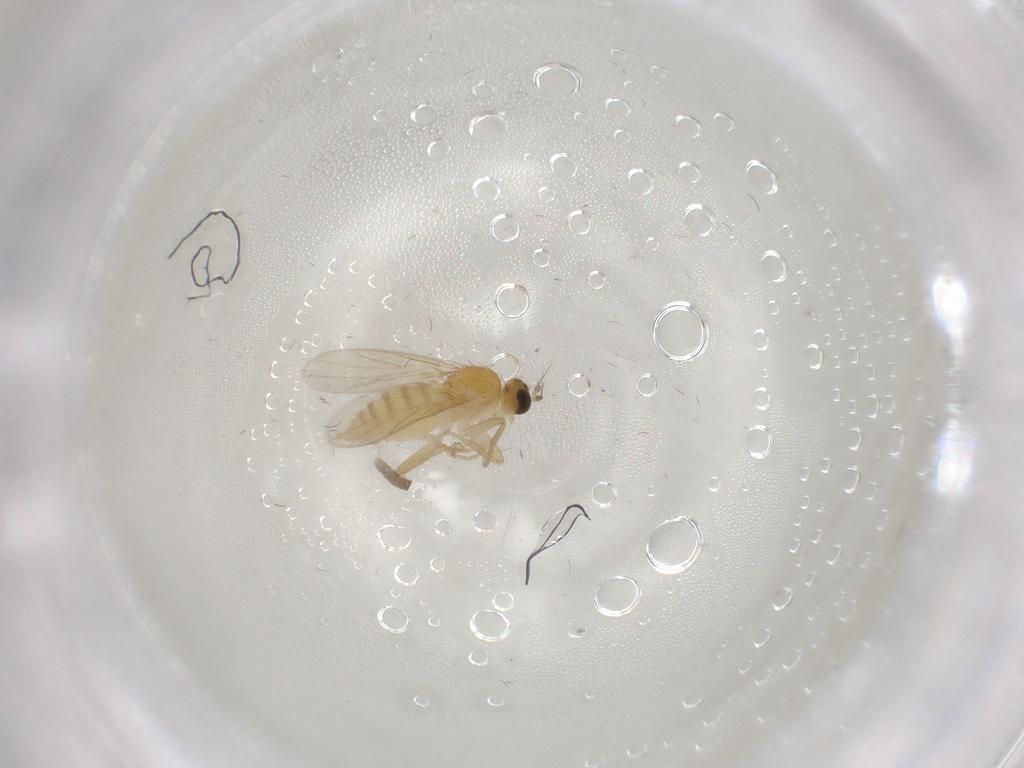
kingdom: Animalia
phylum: Arthropoda
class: Insecta
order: Diptera
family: Hybotidae
